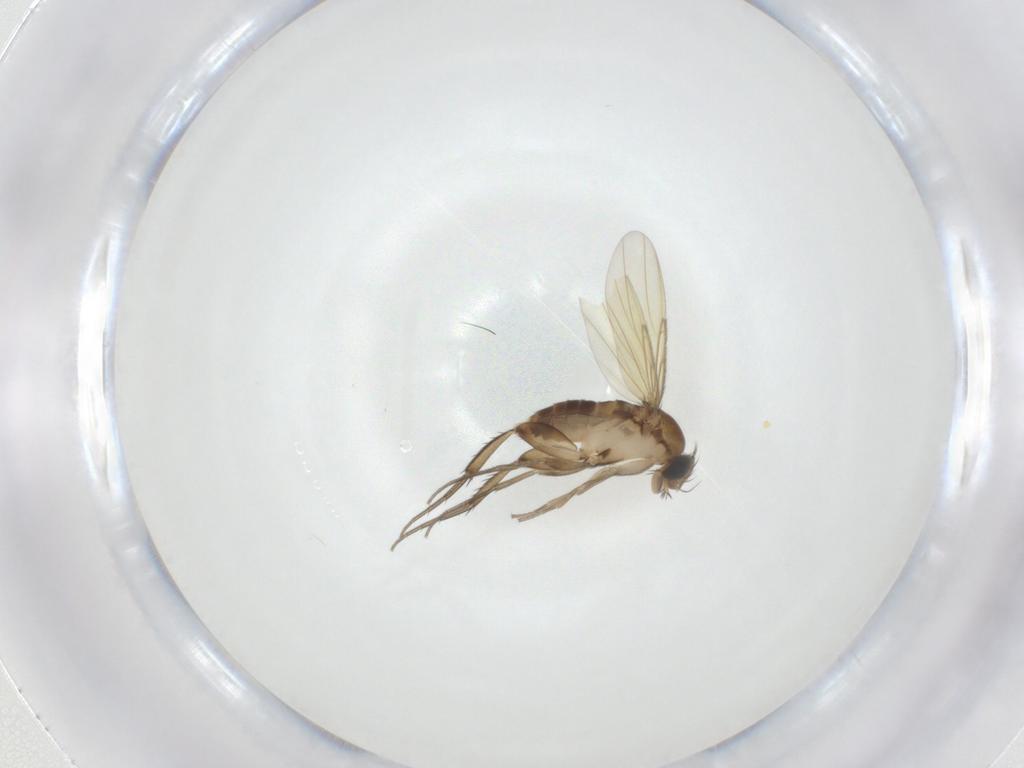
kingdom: Animalia
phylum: Arthropoda
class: Insecta
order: Diptera
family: Phoridae
